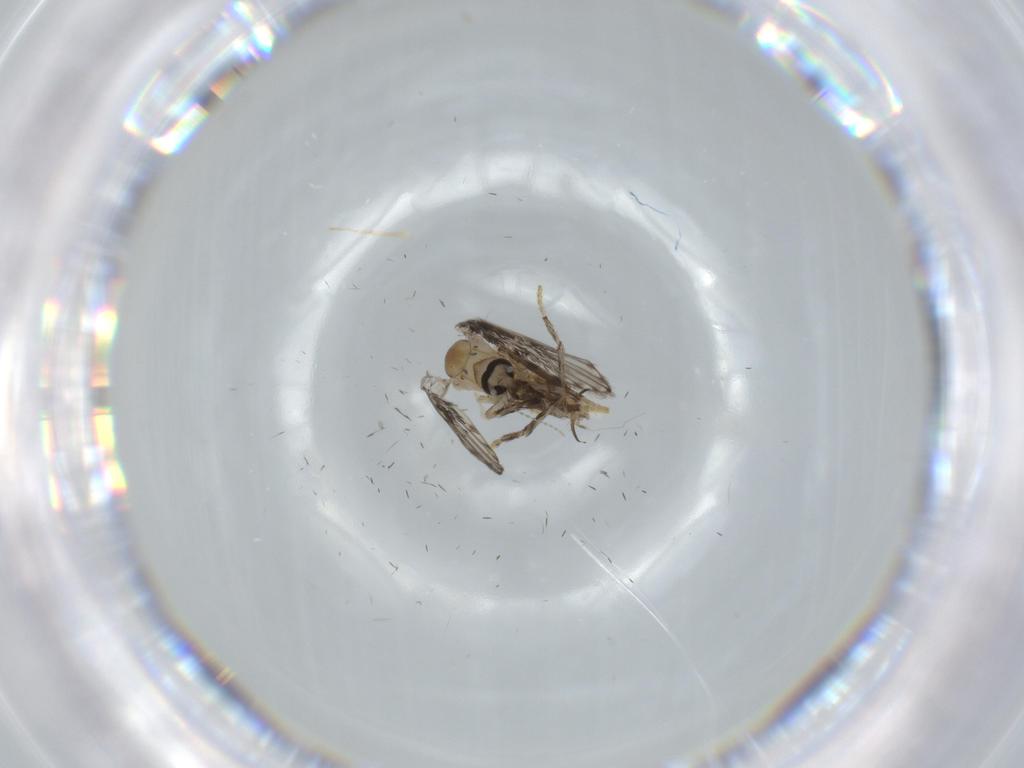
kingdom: Animalia
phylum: Arthropoda
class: Insecta
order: Diptera
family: Sciaridae
